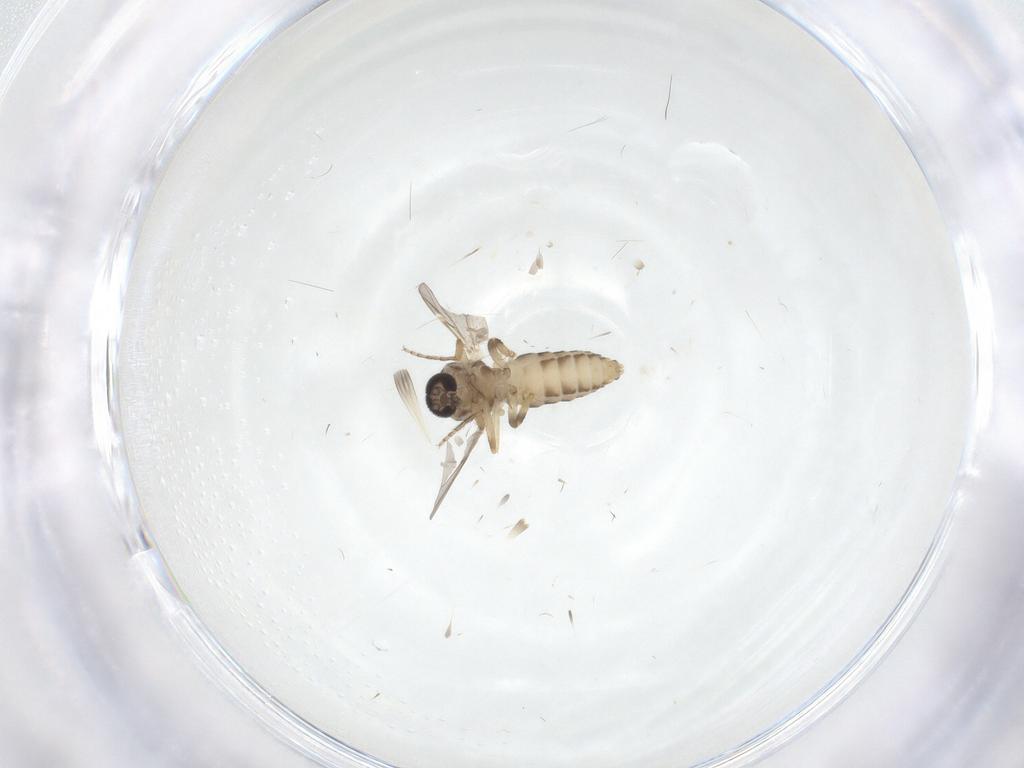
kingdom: Animalia
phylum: Arthropoda
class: Insecta
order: Diptera
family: Ceratopogonidae
